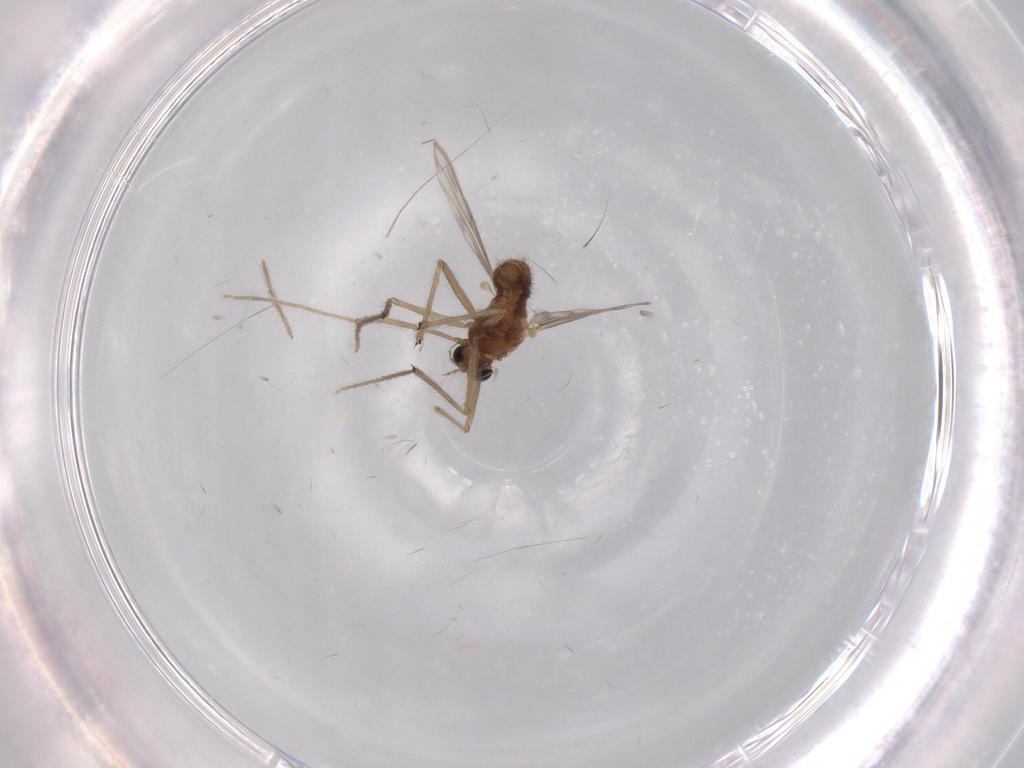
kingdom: Animalia
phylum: Arthropoda
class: Insecta
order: Diptera
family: Chironomidae
